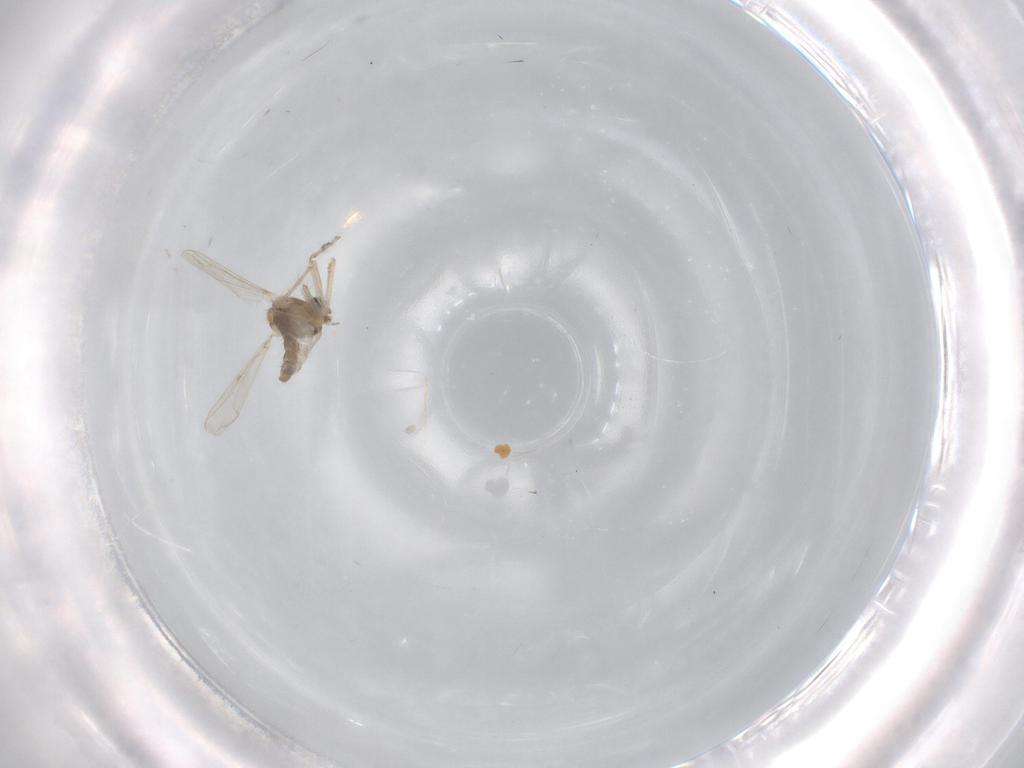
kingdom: Animalia
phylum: Arthropoda
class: Insecta
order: Diptera
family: Chironomidae
